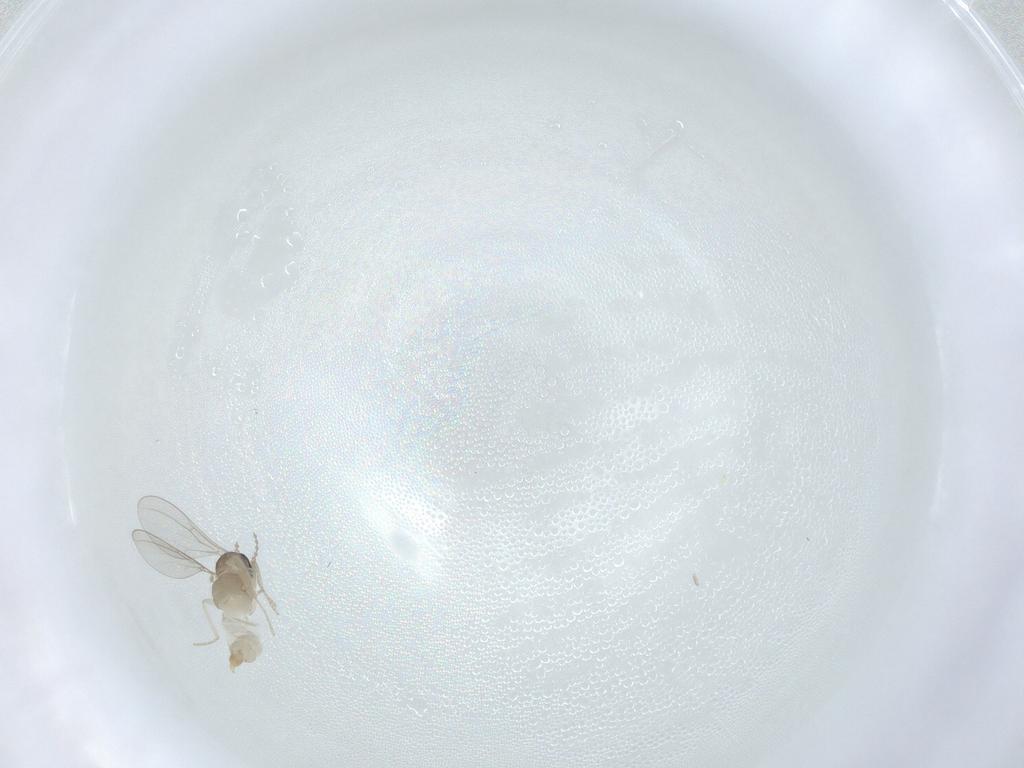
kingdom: Animalia
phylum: Arthropoda
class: Insecta
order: Diptera
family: Cecidomyiidae
